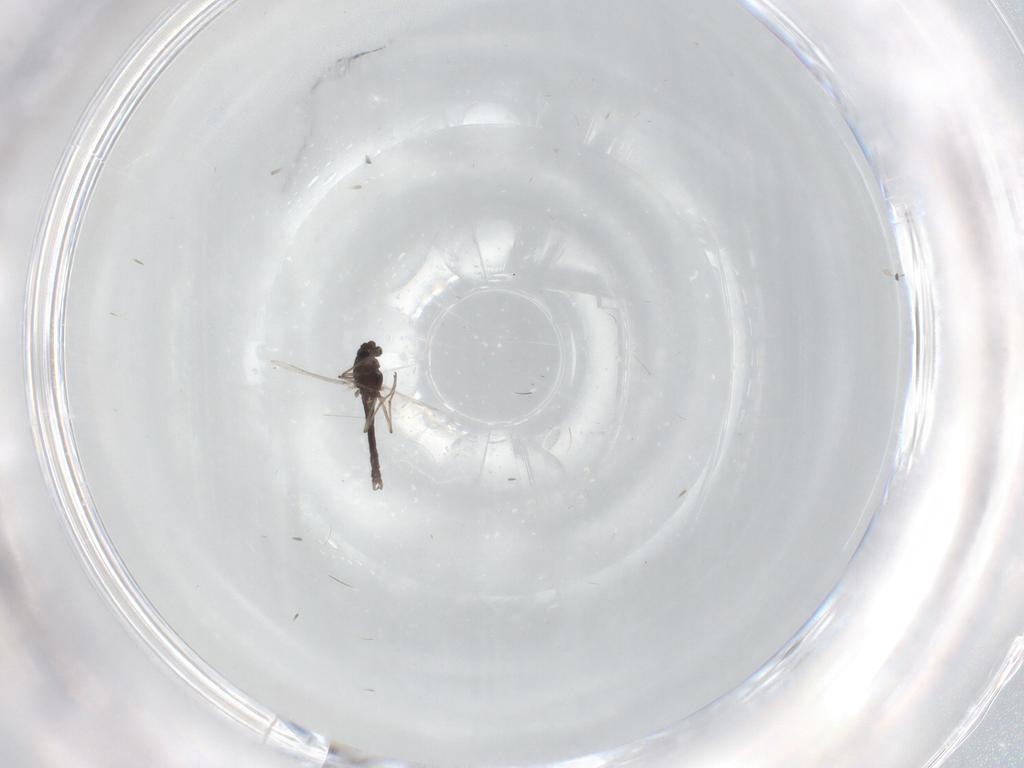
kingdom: Animalia
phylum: Arthropoda
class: Insecta
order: Diptera
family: Chironomidae
